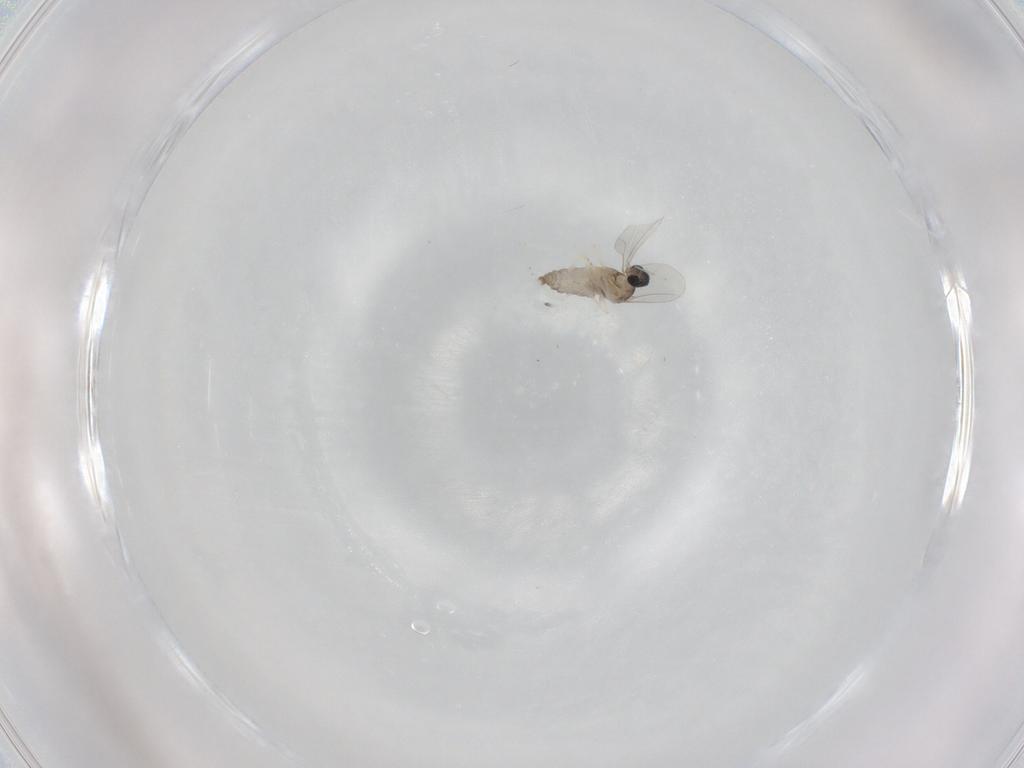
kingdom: Animalia
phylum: Arthropoda
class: Insecta
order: Diptera
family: Cecidomyiidae
